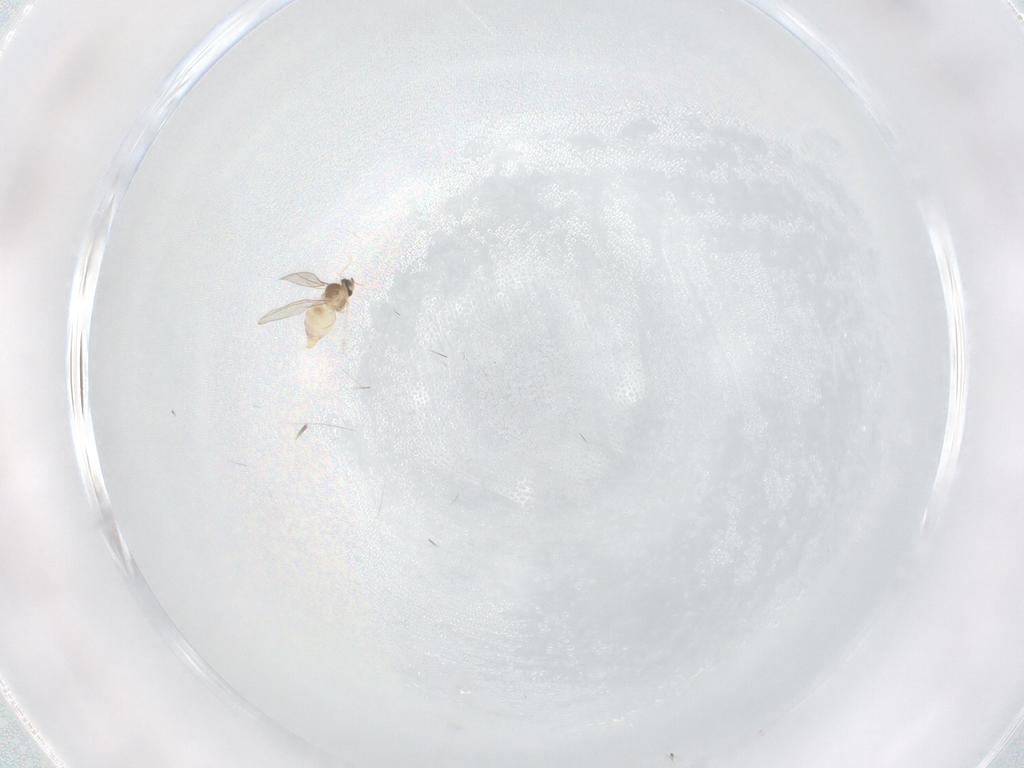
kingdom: Animalia
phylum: Arthropoda
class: Insecta
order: Diptera
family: Cecidomyiidae
